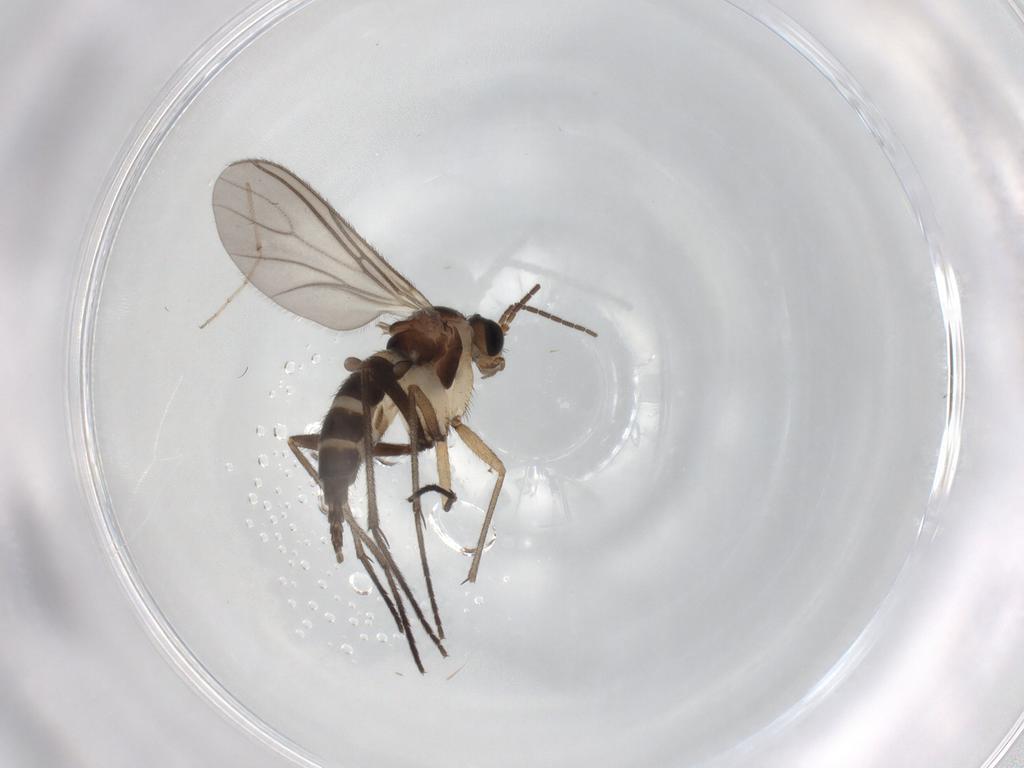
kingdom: Animalia
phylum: Arthropoda
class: Insecta
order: Diptera
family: Sciaridae
